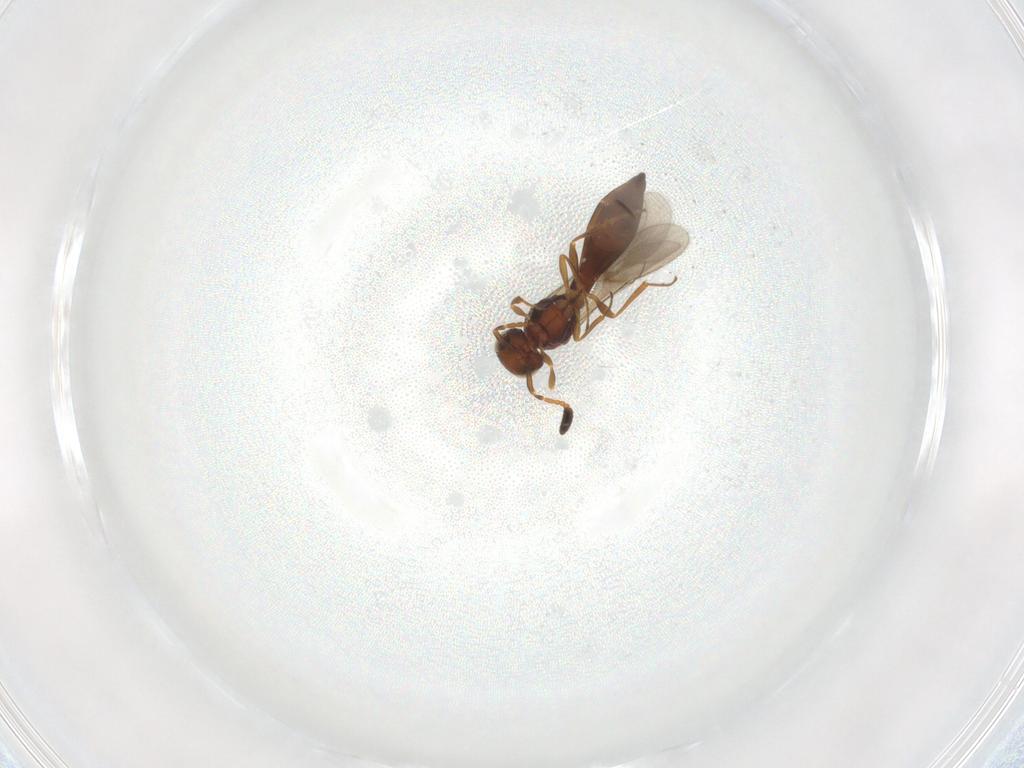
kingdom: Animalia
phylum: Arthropoda
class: Insecta
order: Hymenoptera
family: Scelionidae
